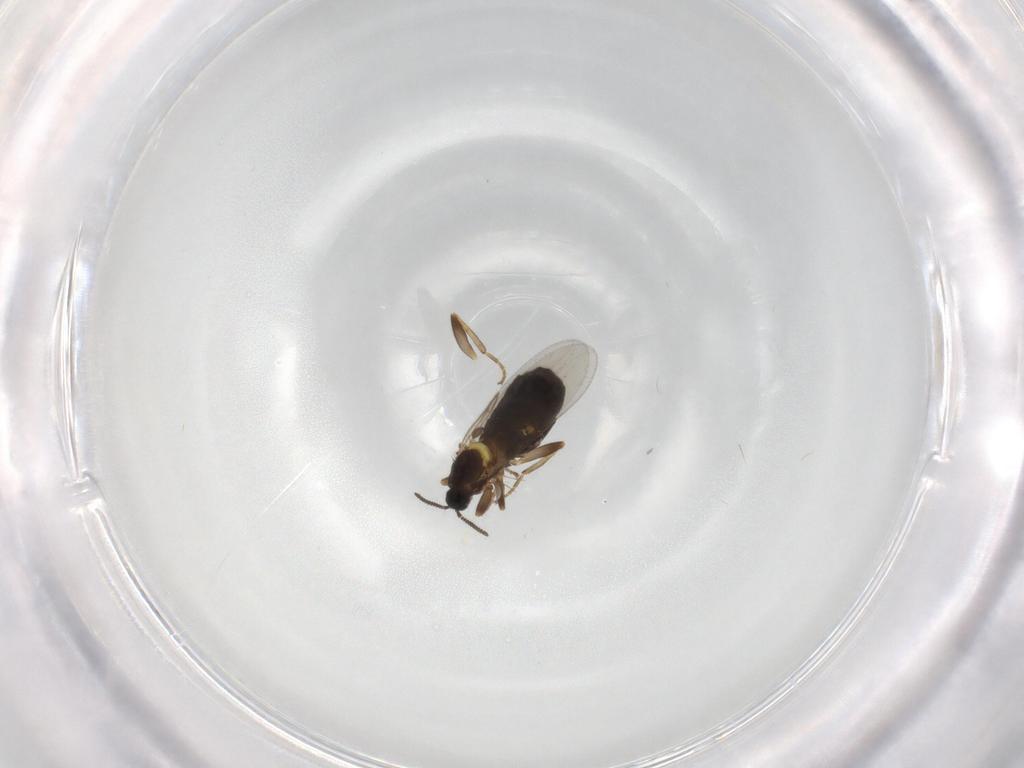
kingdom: Animalia
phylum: Arthropoda
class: Insecta
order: Diptera
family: Scatopsidae
